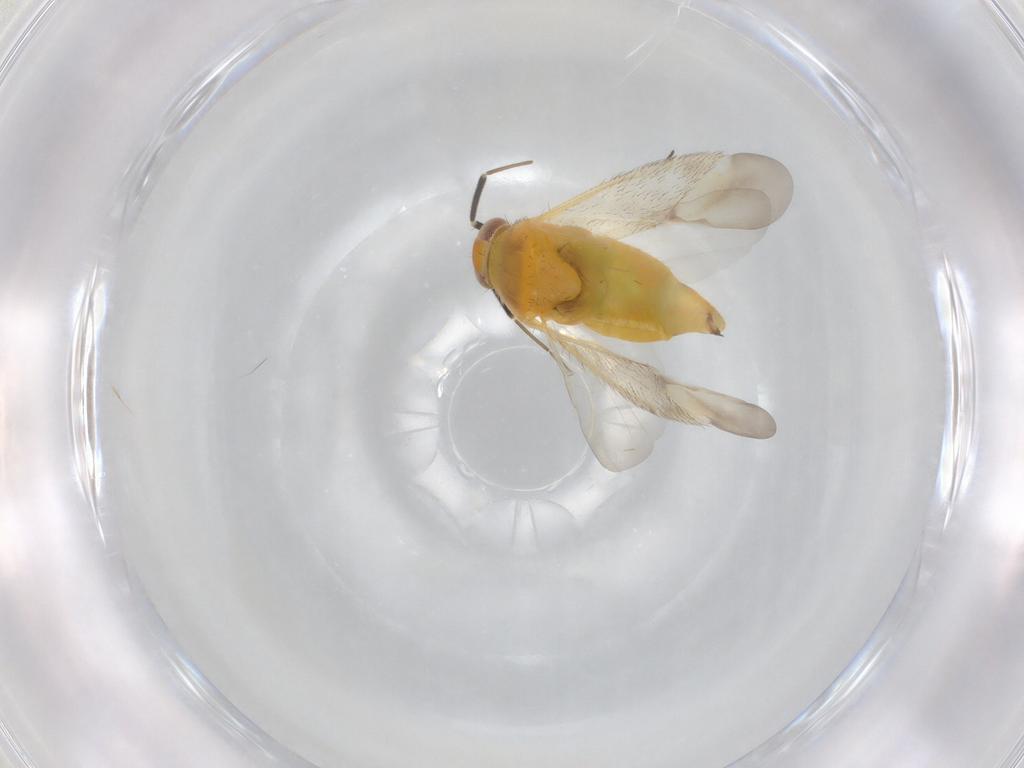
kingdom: Animalia
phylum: Arthropoda
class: Insecta
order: Hemiptera
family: Miridae
